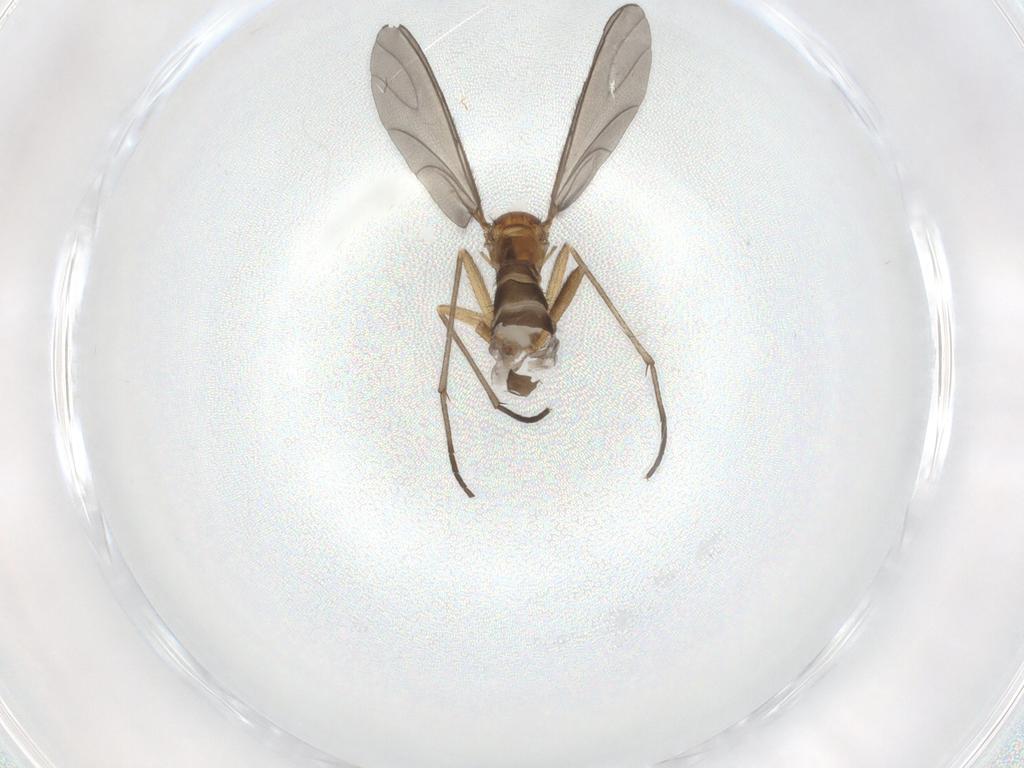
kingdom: Animalia
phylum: Arthropoda
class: Insecta
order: Diptera
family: Sciaridae
